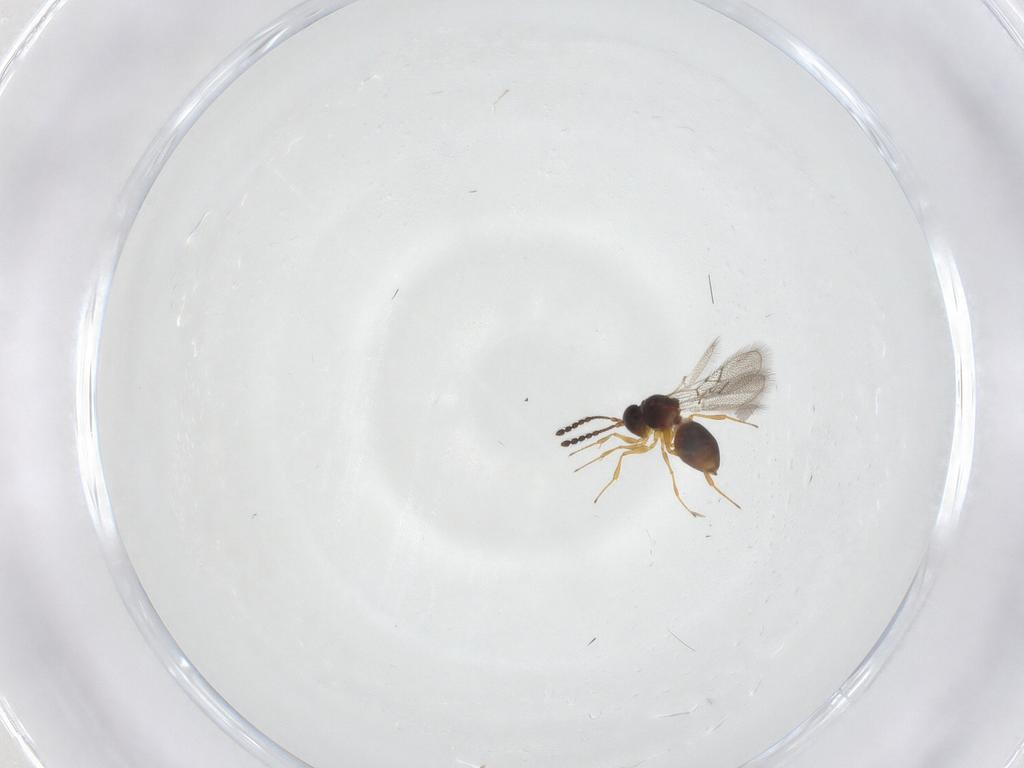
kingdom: Animalia
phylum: Arthropoda
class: Insecta
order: Hymenoptera
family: Figitidae
